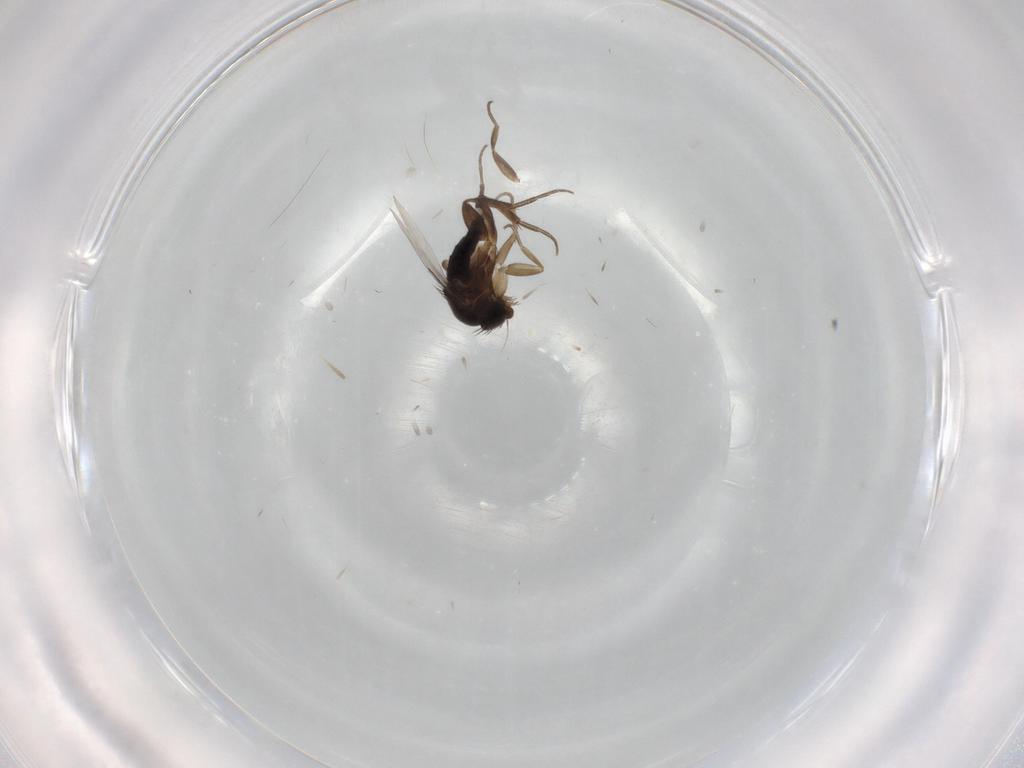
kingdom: Animalia
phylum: Arthropoda
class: Insecta
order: Diptera
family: Phoridae
